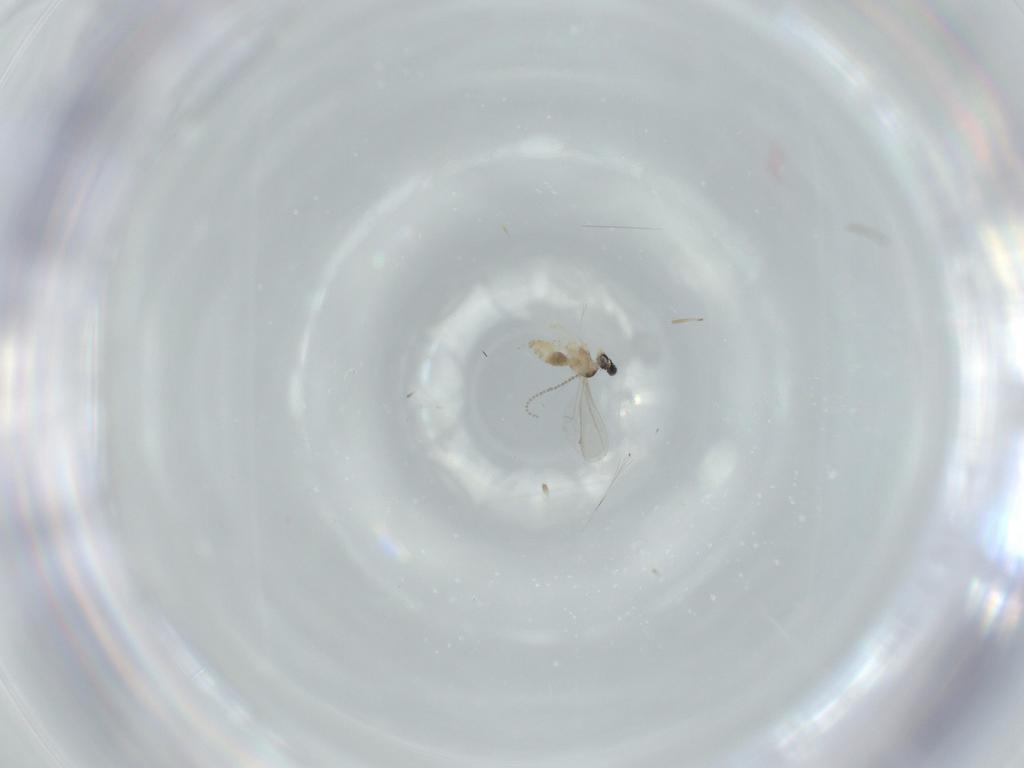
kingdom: Animalia
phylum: Arthropoda
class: Insecta
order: Diptera
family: Cecidomyiidae
